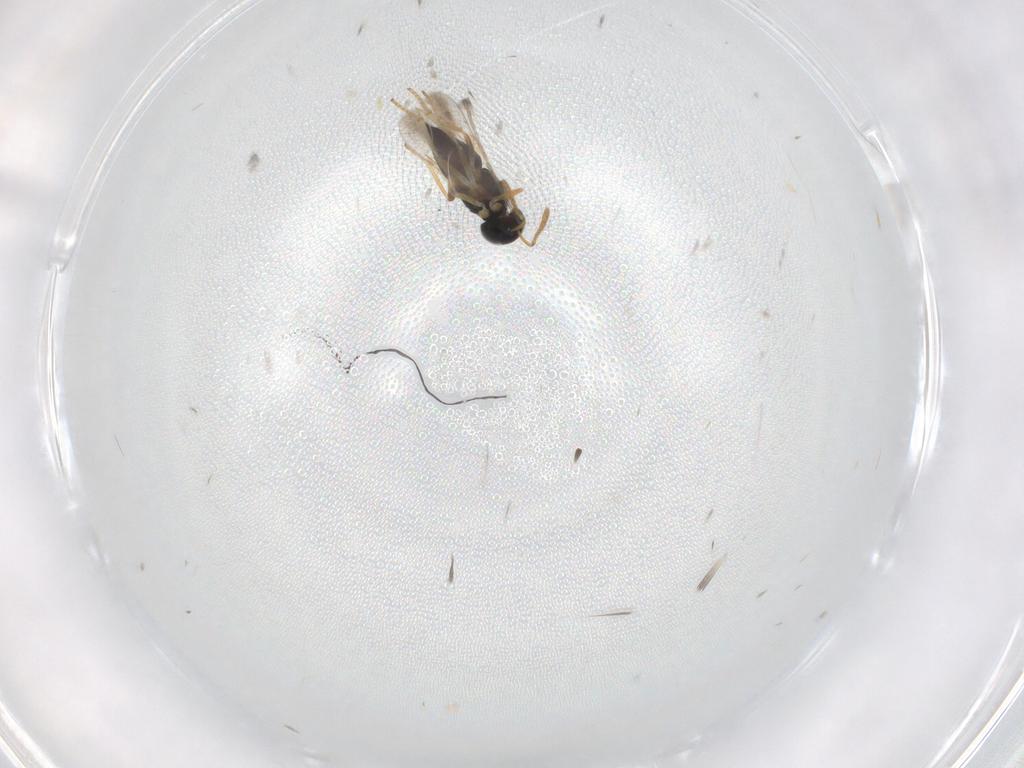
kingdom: Animalia
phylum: Arthropoda
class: Insecta
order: Hymenoptera
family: Encyrtidae
